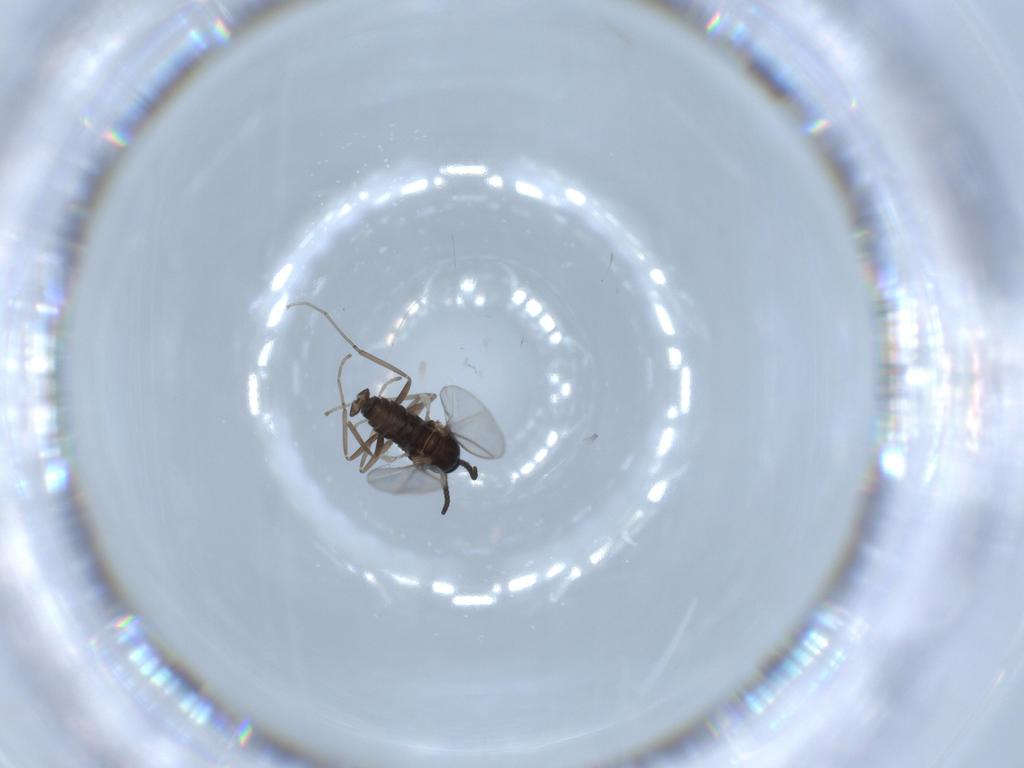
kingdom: Animalia
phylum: Arthropoda
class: Insecta
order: Diptera
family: Cecidomyiidae
